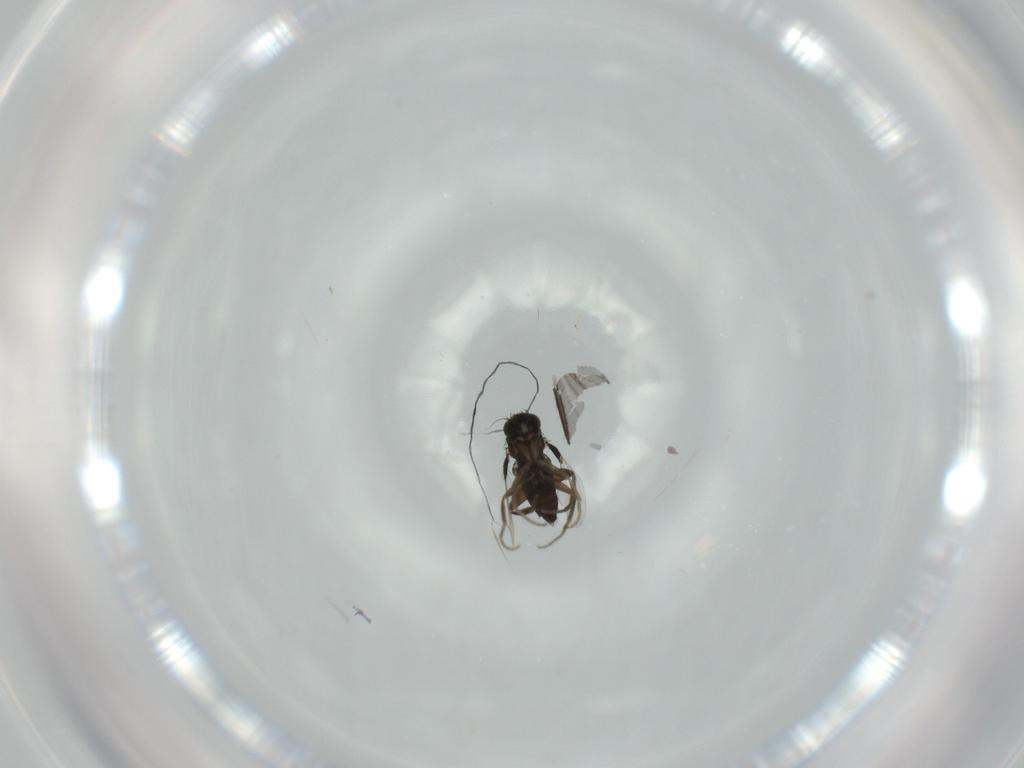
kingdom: Animalia
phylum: Arthropoda
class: Insecta
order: Diptera
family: Phoridae
